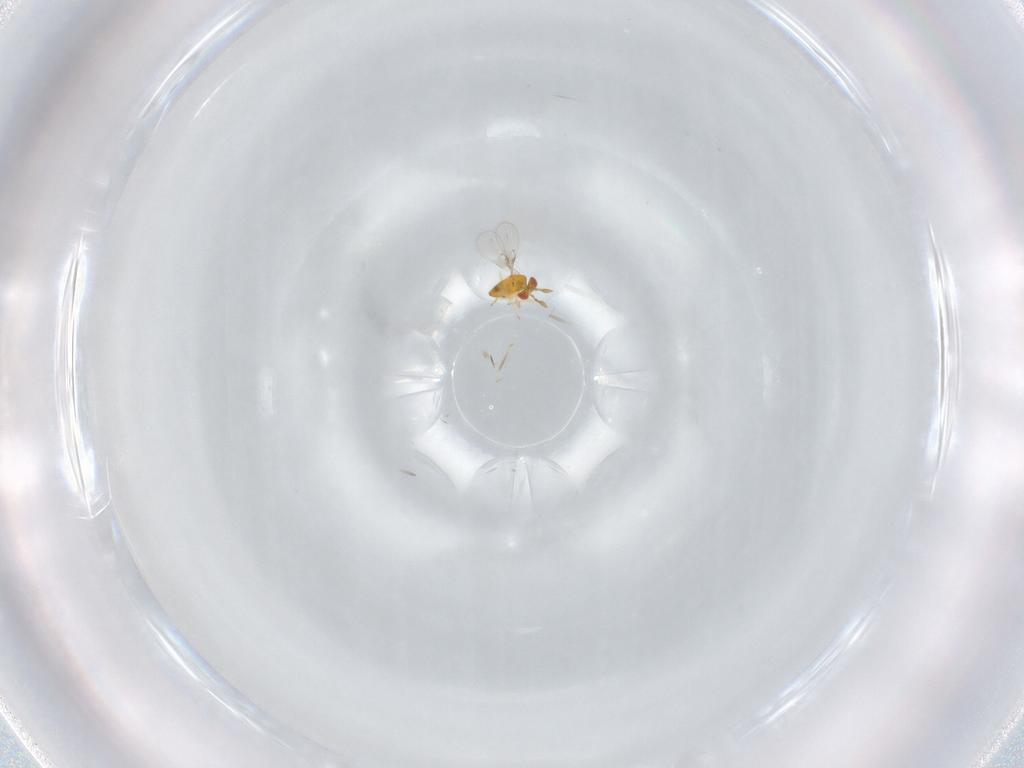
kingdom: Animalia
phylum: Arthropoda
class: Insecta
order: Hymenoptera
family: Trichogrammatidae
